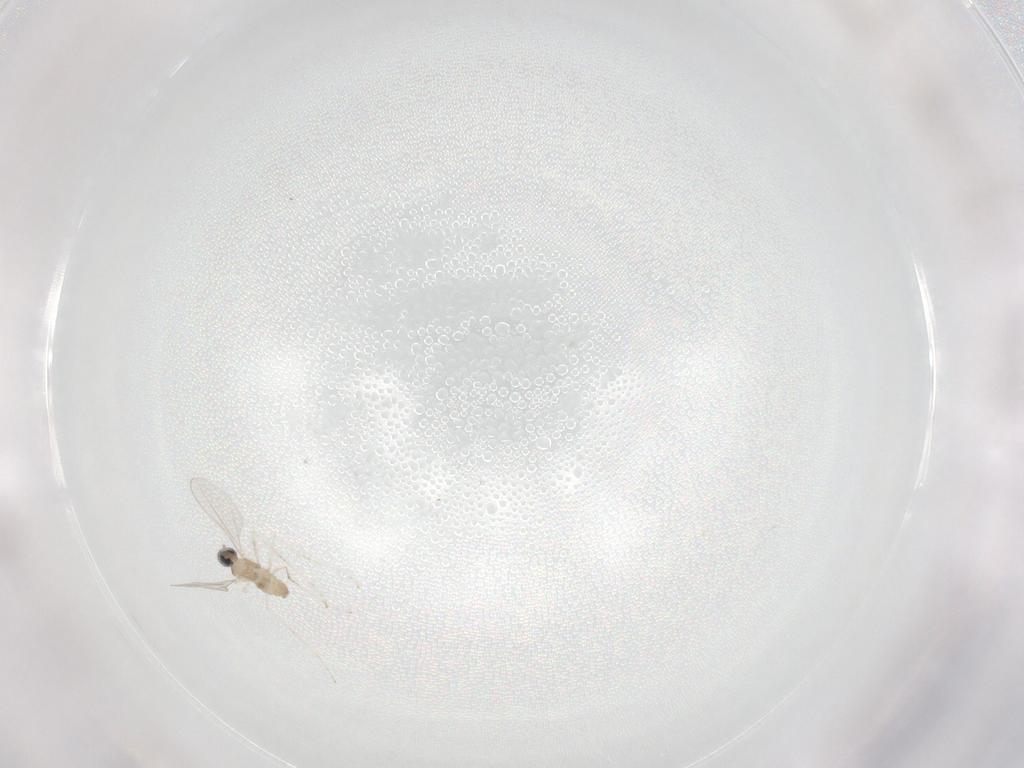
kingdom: Animalia
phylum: Arthropoda
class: Insecta
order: Diptera
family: Cecidomyiidae
